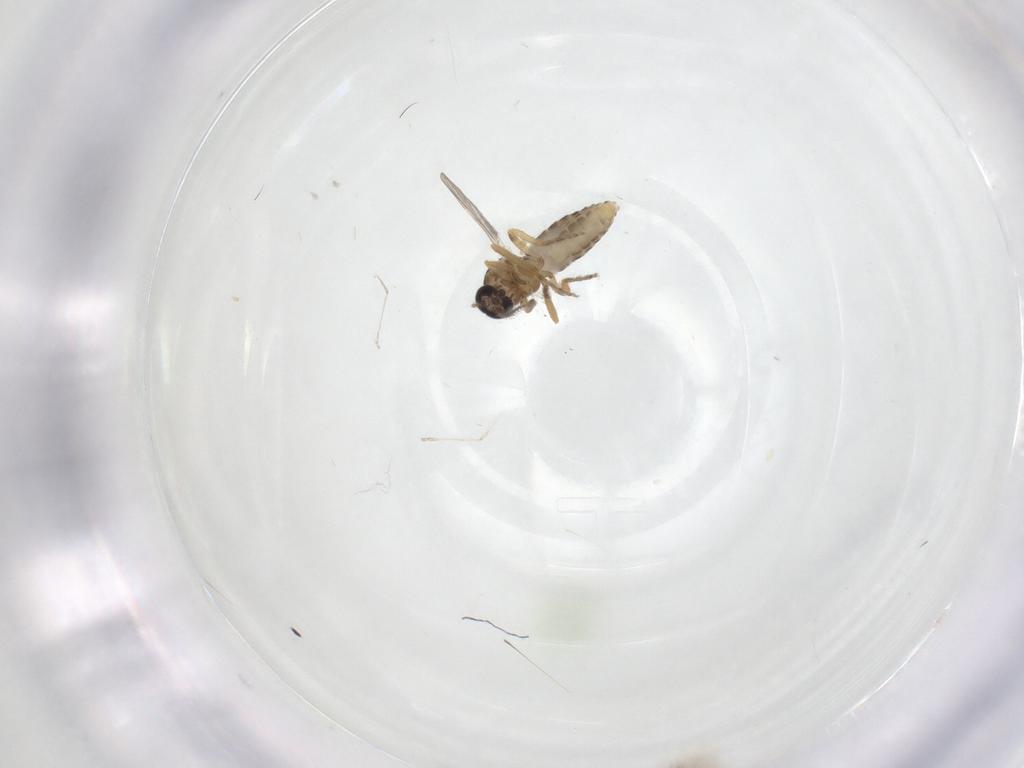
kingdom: Animalia
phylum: Arthropoda
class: Insecta
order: Diptera
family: Ceratopogonidae
